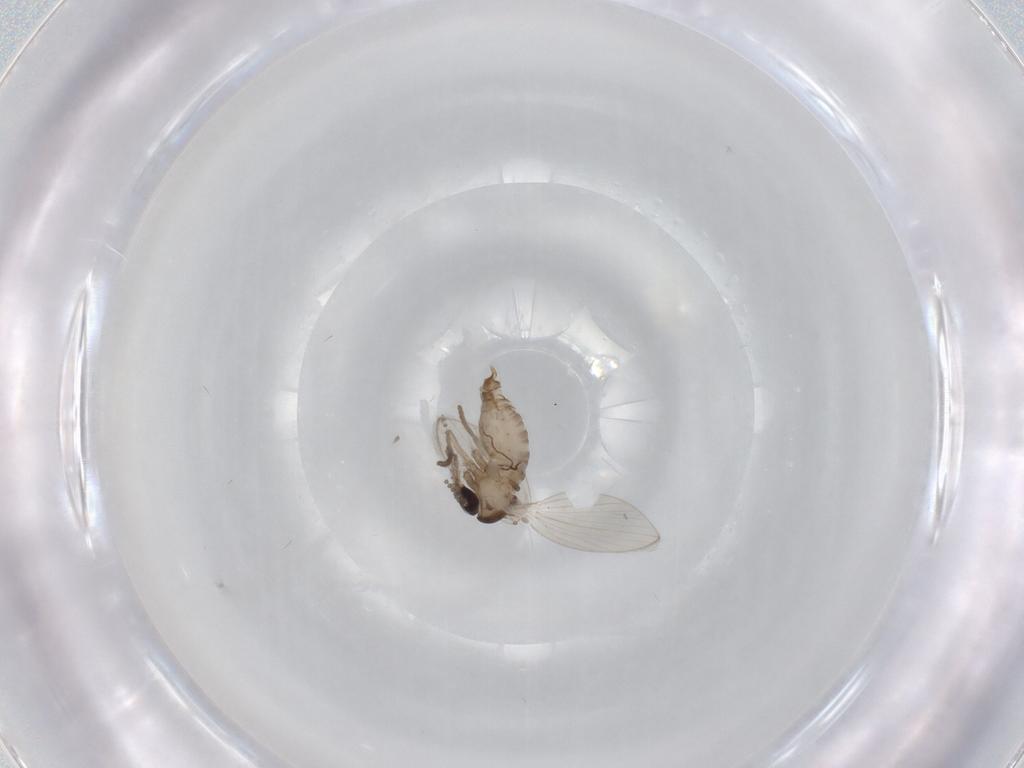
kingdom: Animalia
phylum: Arthropoda
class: Insecta
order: Diptera
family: Psychodidae
